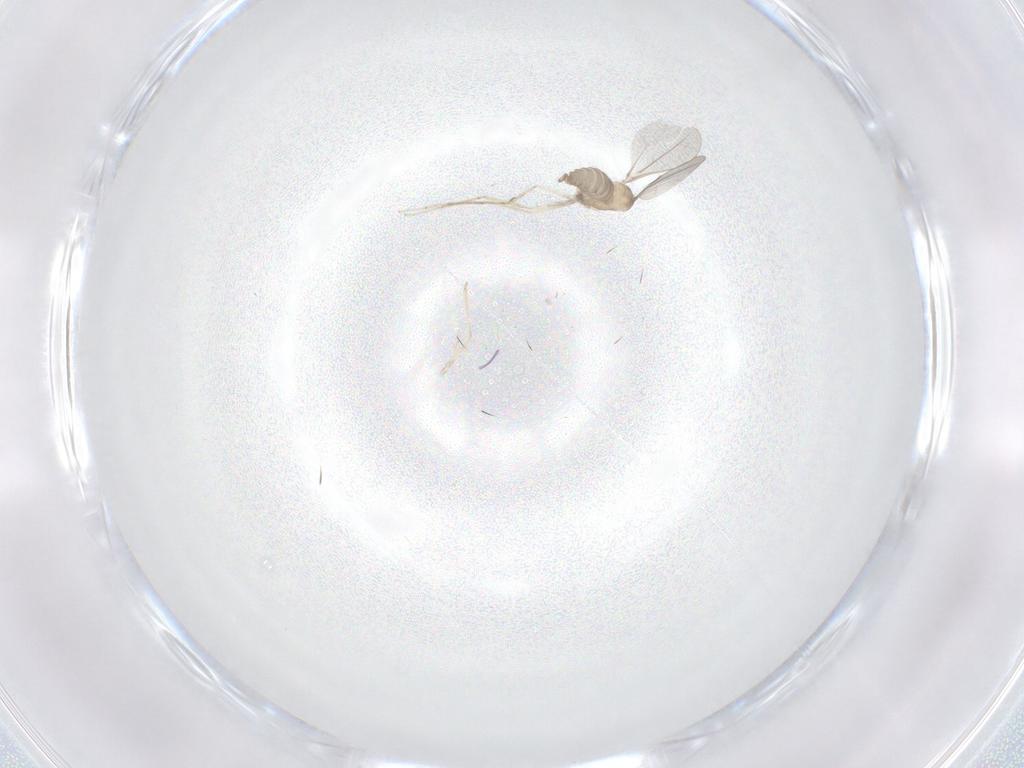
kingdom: Animalia
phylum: Arthropoda
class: Insecta
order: Diptera
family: Cecidomyiidae
